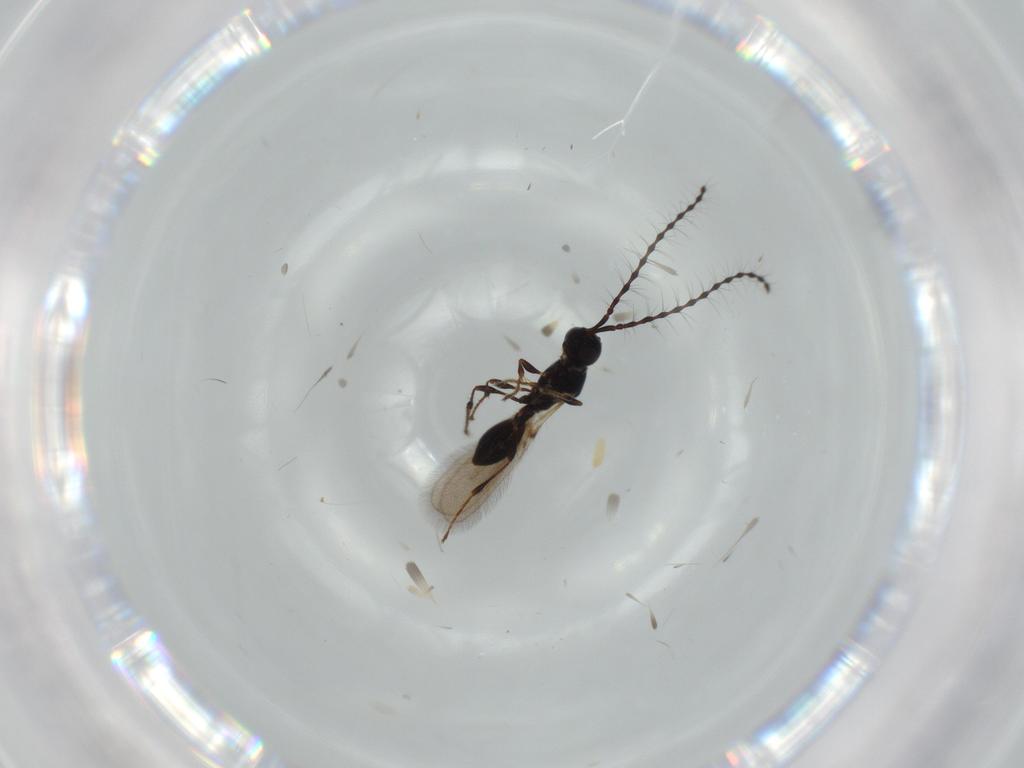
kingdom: Animalia
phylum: Arthropoda
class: Insecta
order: Hymenoptera
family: Diapriidae
